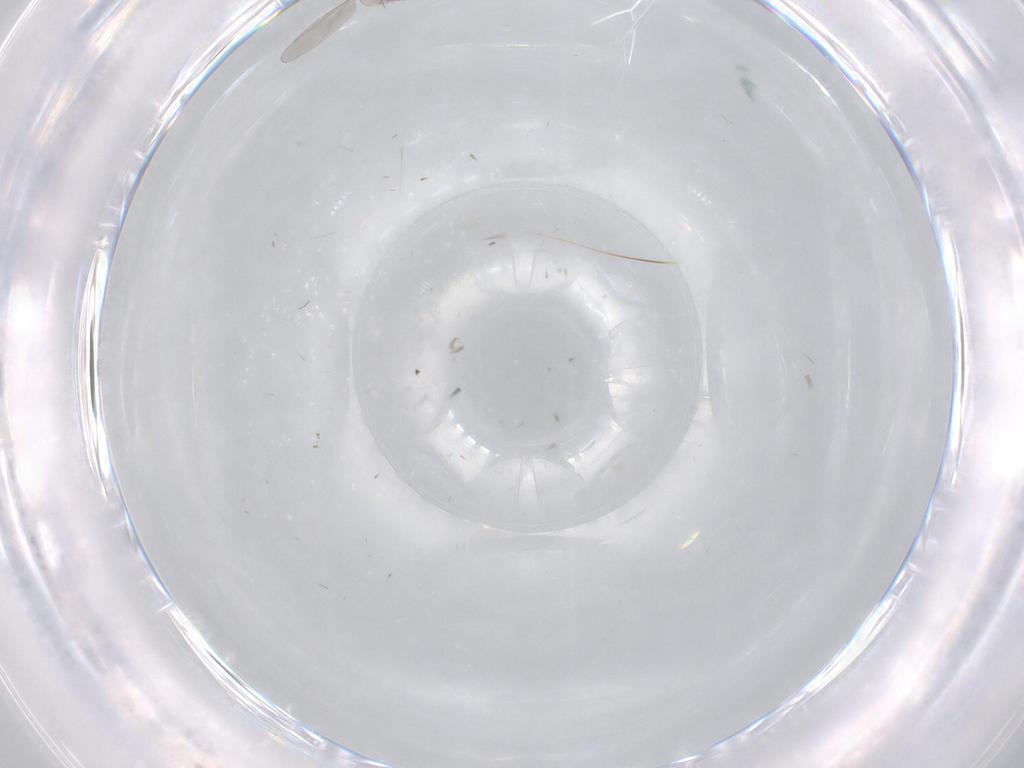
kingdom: Animalia
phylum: Arthropoda
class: Insecta
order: Diptera
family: Cecidomyiidae
